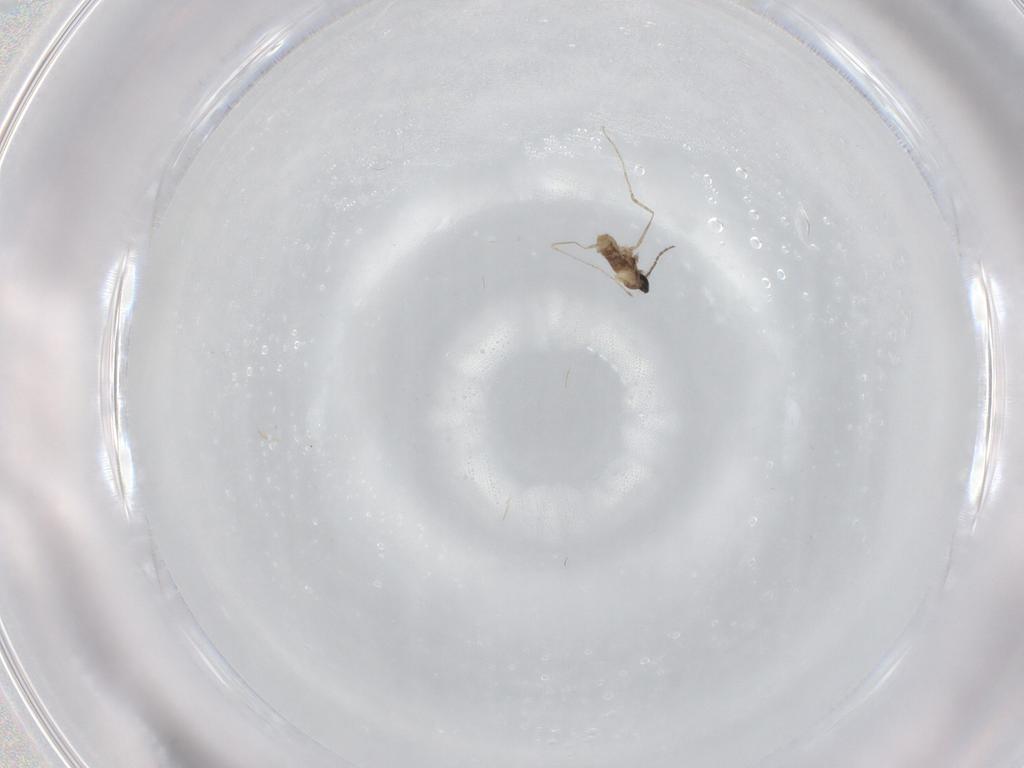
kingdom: Animalia
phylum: Arthropoda
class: Insecta
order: Diptera
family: Cecidomyiidae
